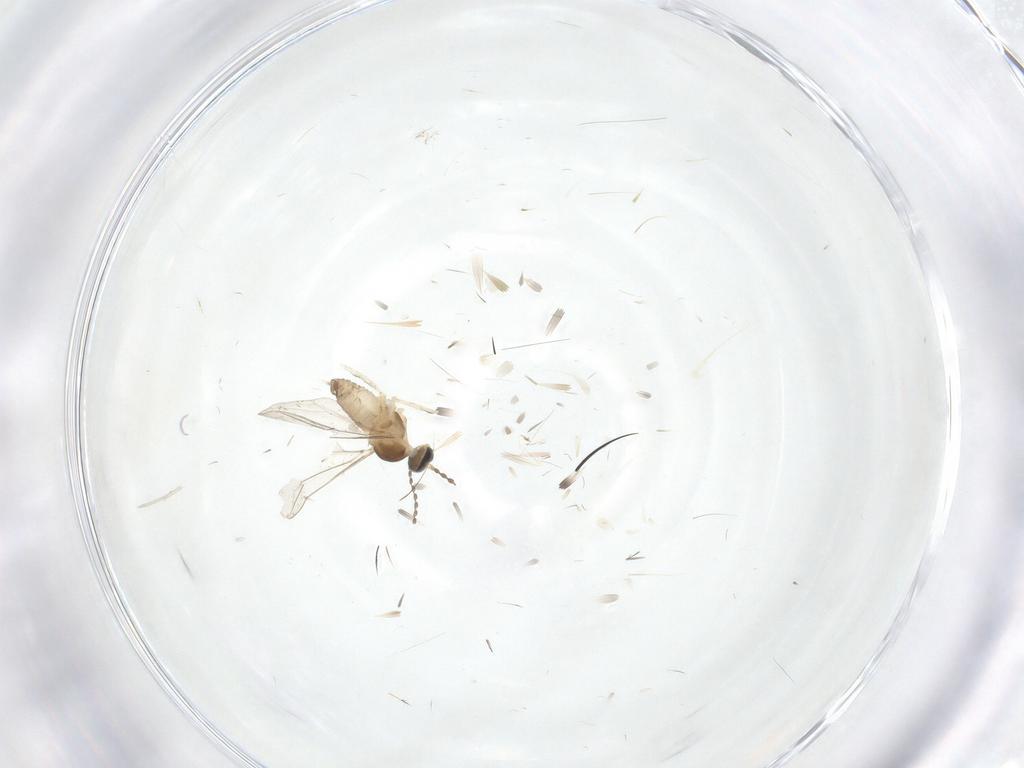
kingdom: Animalia
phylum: Arthropoda
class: Insecta
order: Diptera
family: Cecidomyiidae
